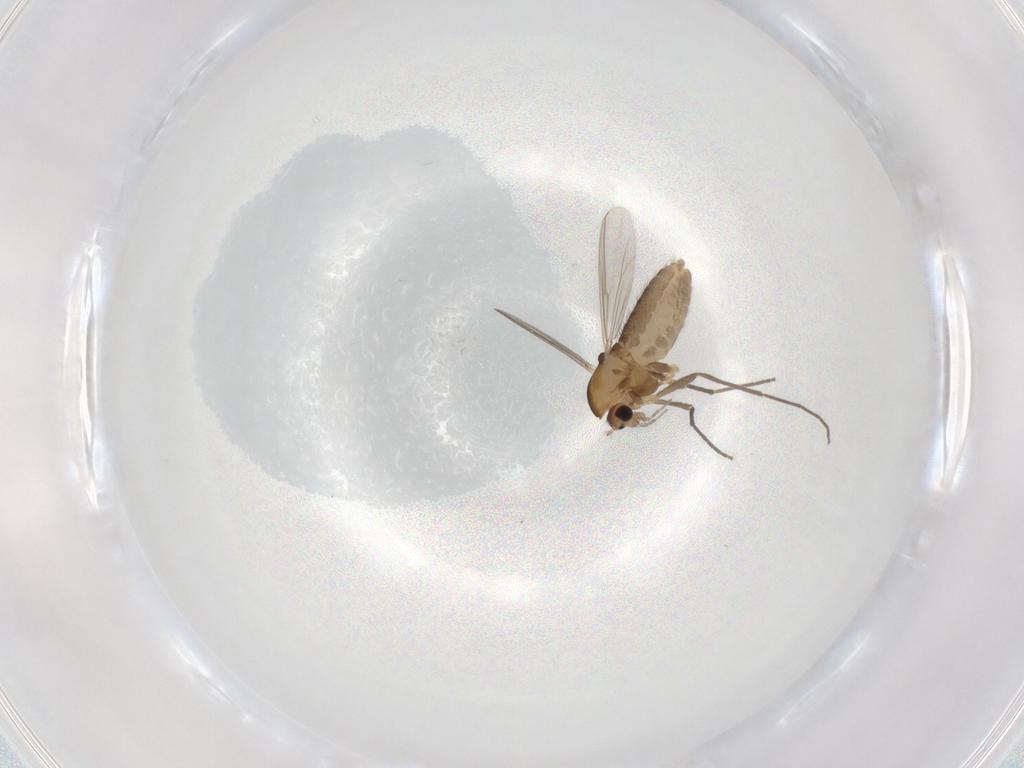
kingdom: Animalia
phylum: Arthropoda
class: Insecta
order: Diptera
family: Chironomidae
